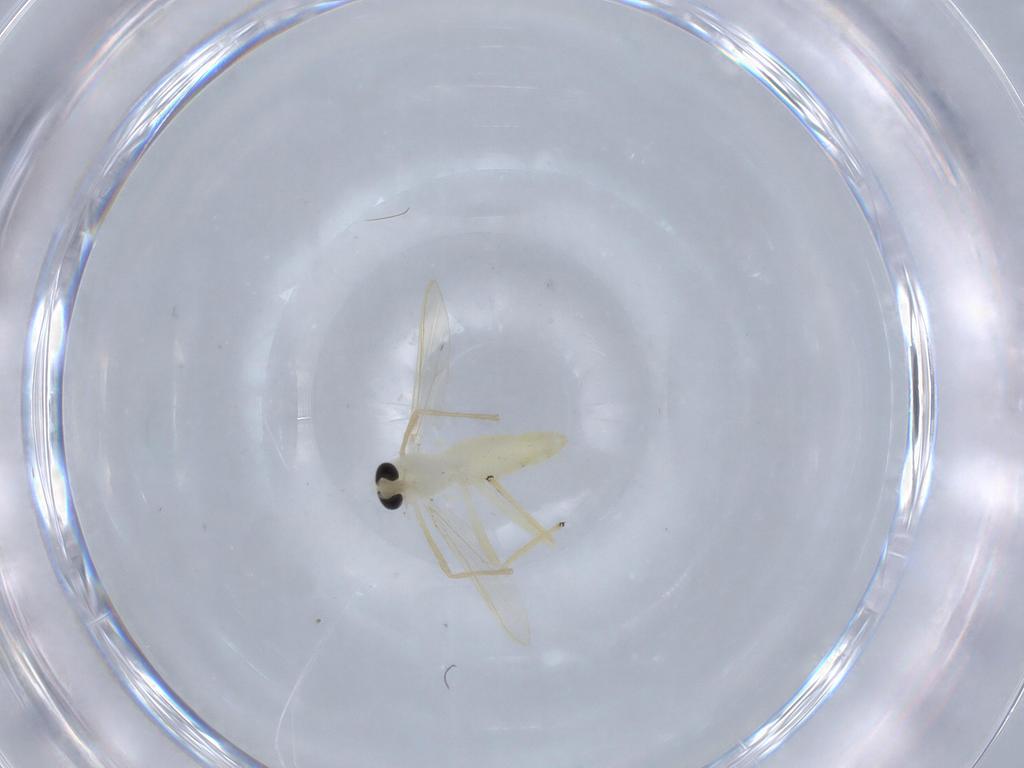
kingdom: Animalia
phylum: Arthropoda
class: Insecta
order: Diptera
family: Chironomidae
